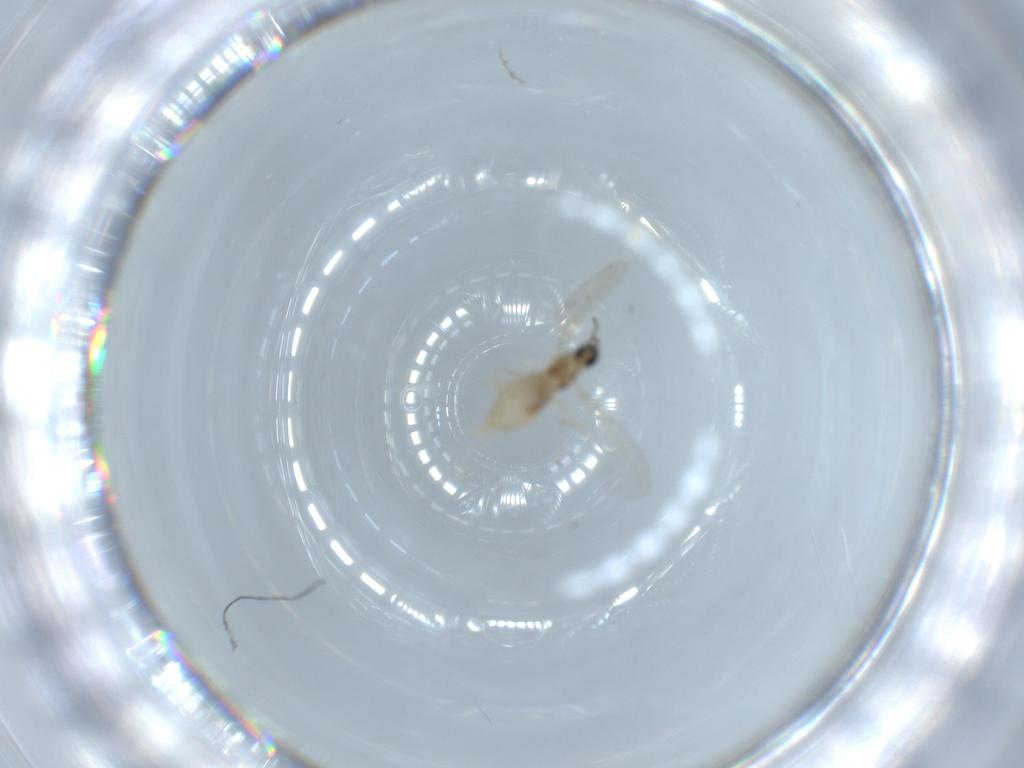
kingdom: Animalia
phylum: Arthropoda
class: Insecta
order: Diptera
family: Cecidomyiidae
